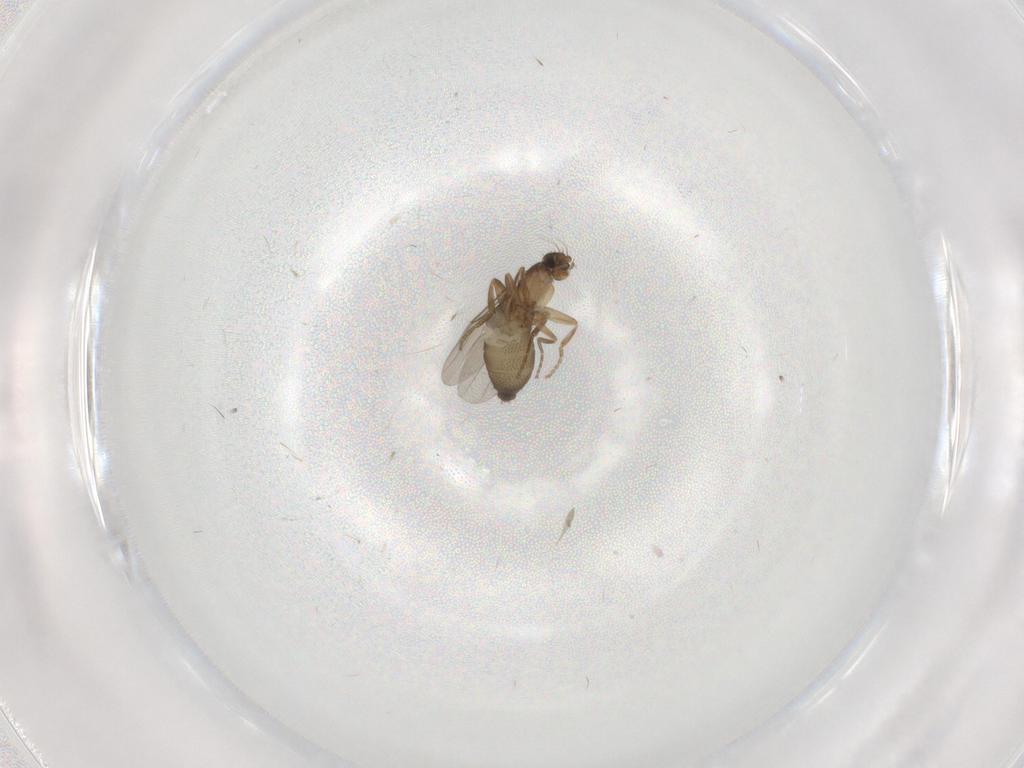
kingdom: Animalia
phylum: Arthropoda
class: Insecta
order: Diptera
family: Phoridae
